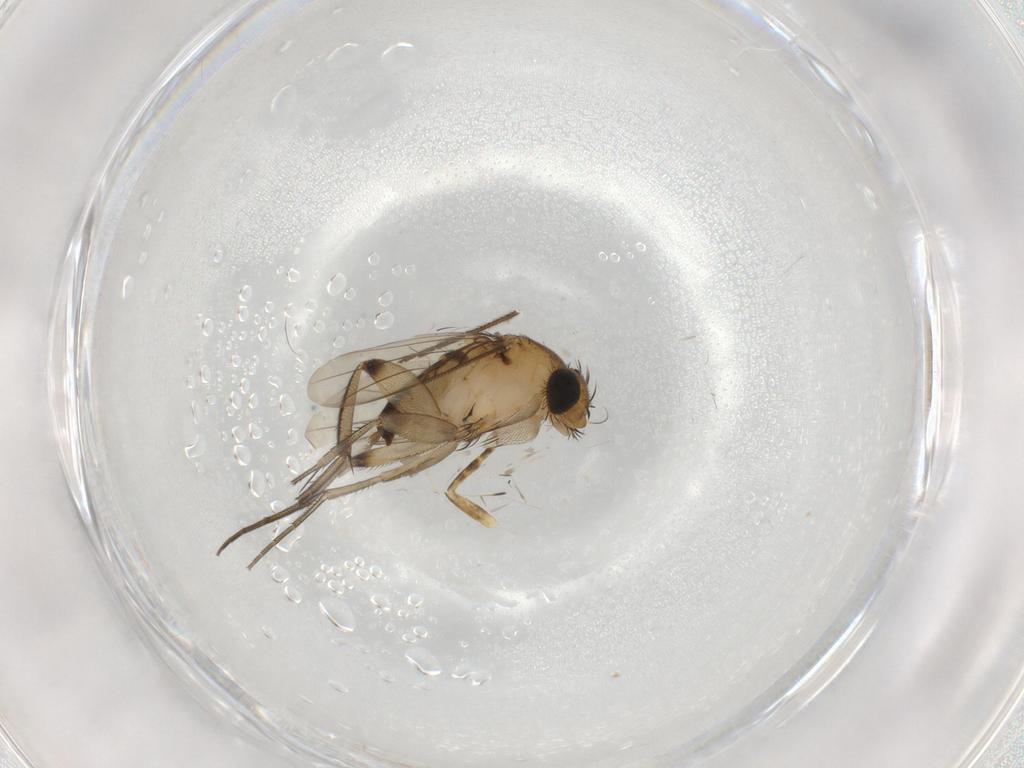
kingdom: Animalia
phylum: Arthropoda
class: Insecta
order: Diptera
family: Phoridae
